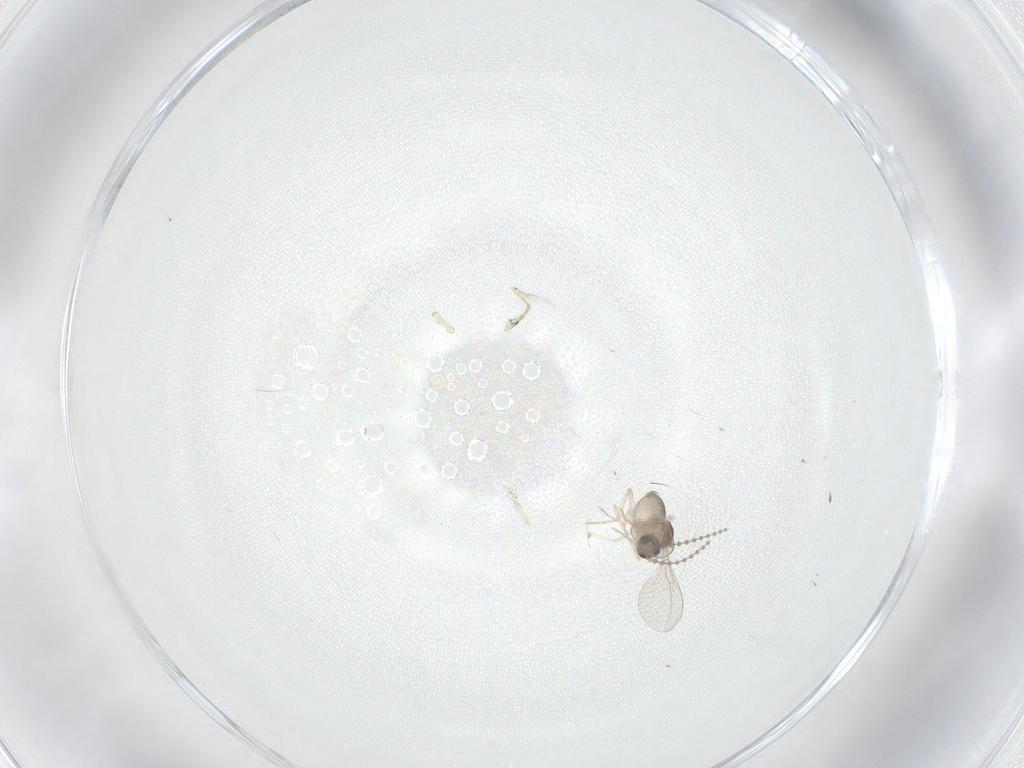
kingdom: Animalia
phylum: Arthropoda
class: Insecta
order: Diptera
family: Cecidomyiidae
